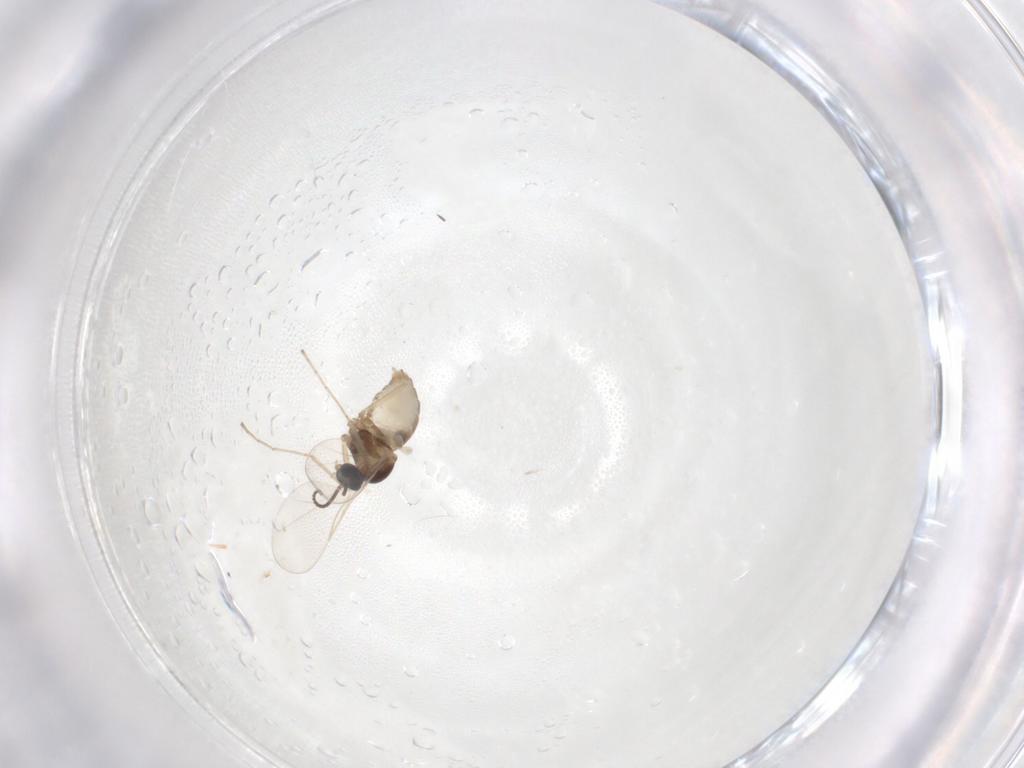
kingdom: Animalia
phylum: Arthropoda
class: Insecta
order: Diptera
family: Cecidomyiidae
